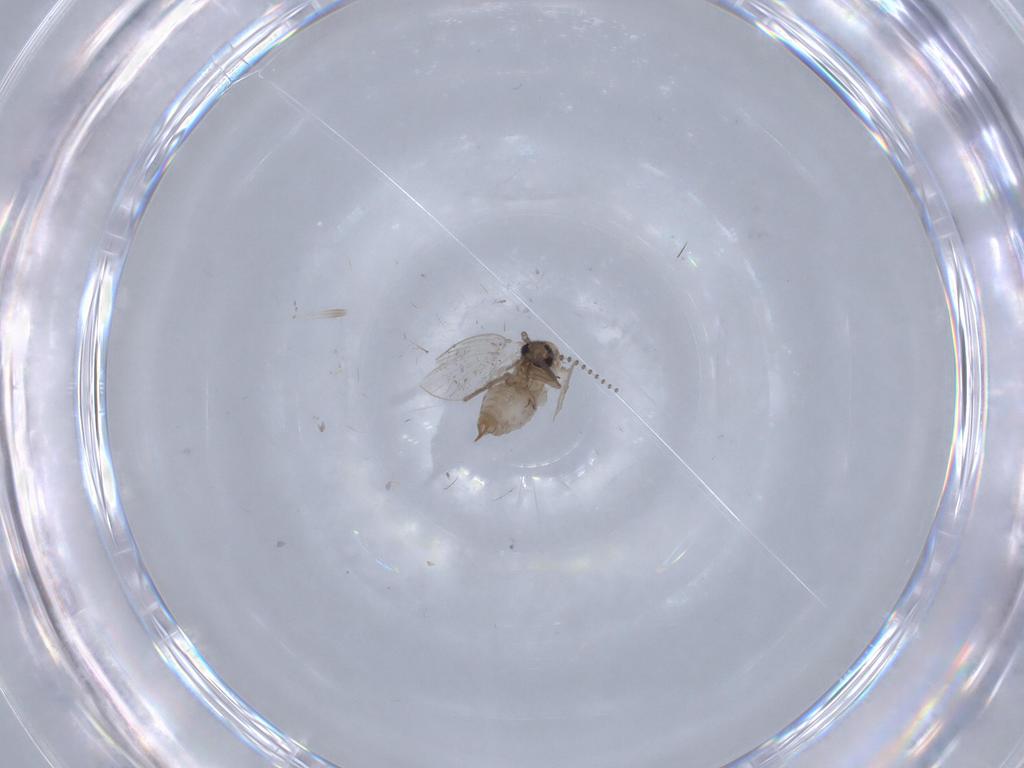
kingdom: Animalia
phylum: Arthropoda
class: Insecta
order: Diptera
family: Psychodidae
